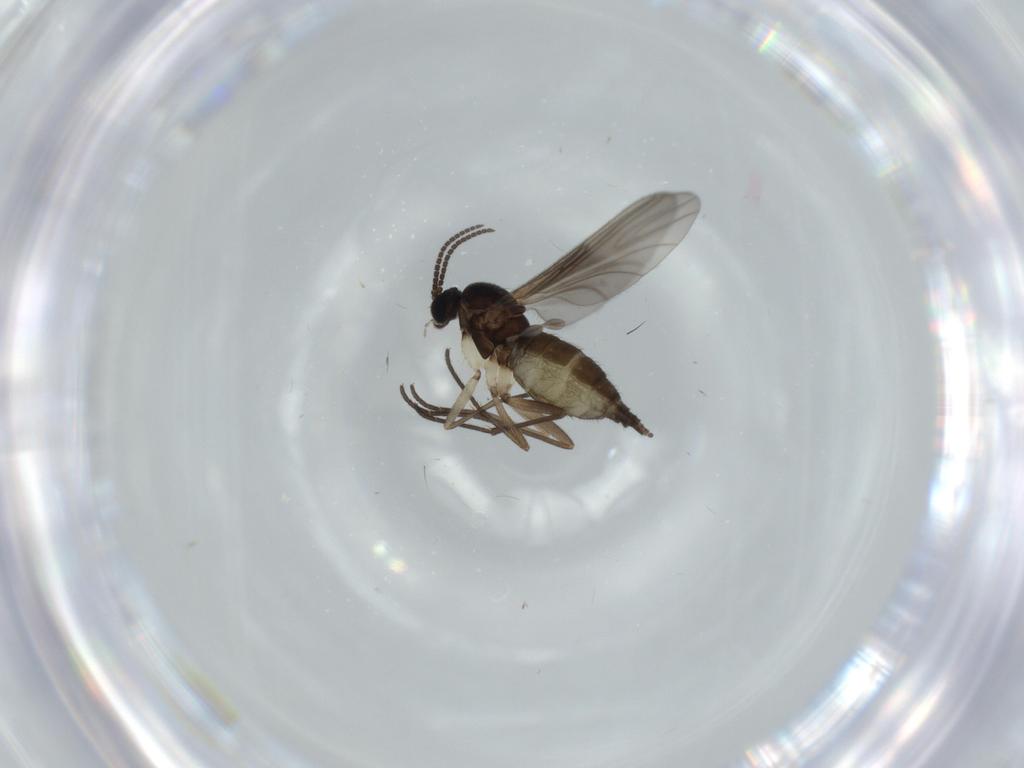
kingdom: Animalia
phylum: Arthropoda
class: Insecta
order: Diptera
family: Sciaridae
